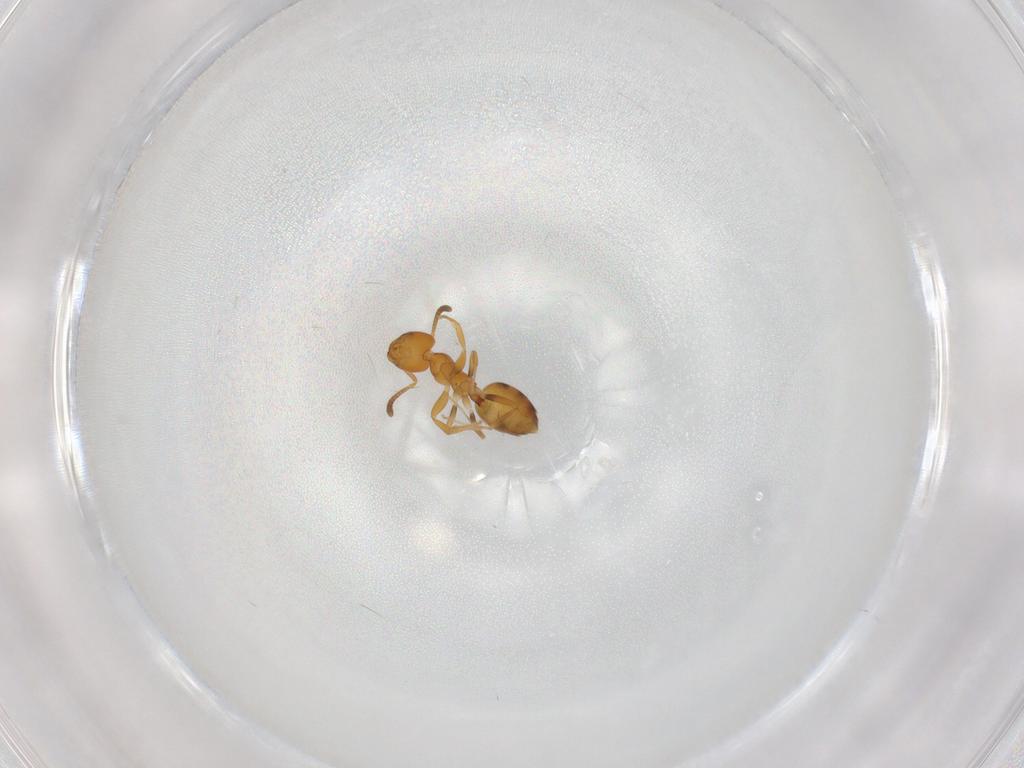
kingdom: Animalia
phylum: Arthropoda
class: Insecta
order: Hymenoptera
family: Formicidae
